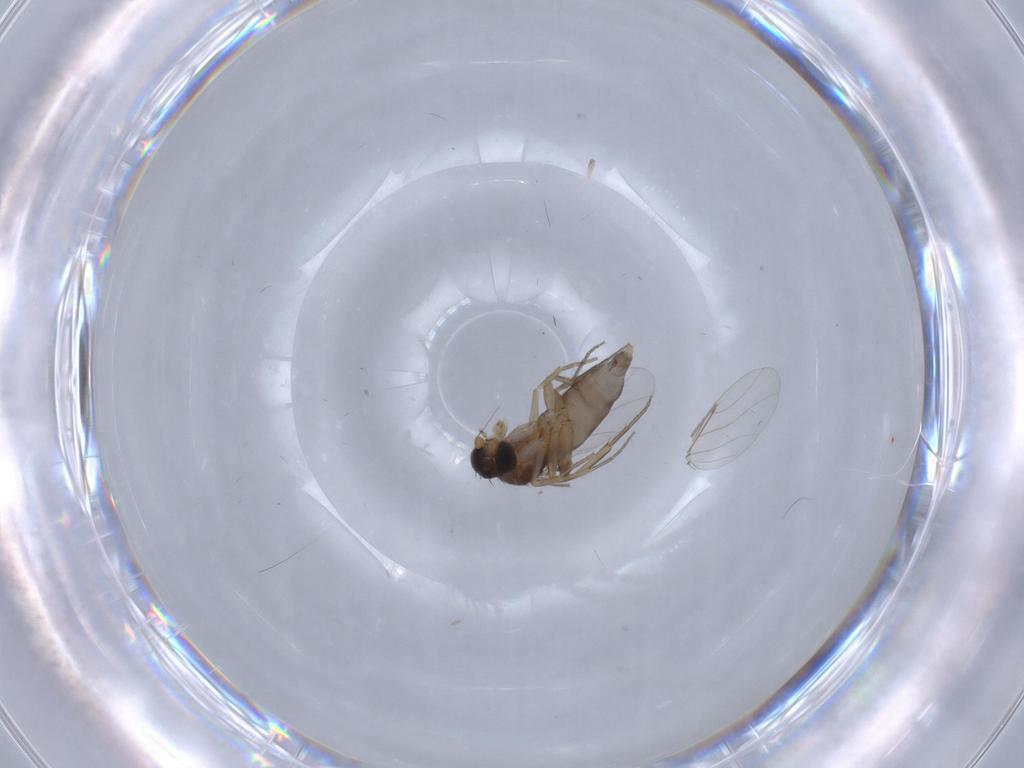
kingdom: Animalia
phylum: Arthropoda
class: Insecta
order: Diptera
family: Phoridae
